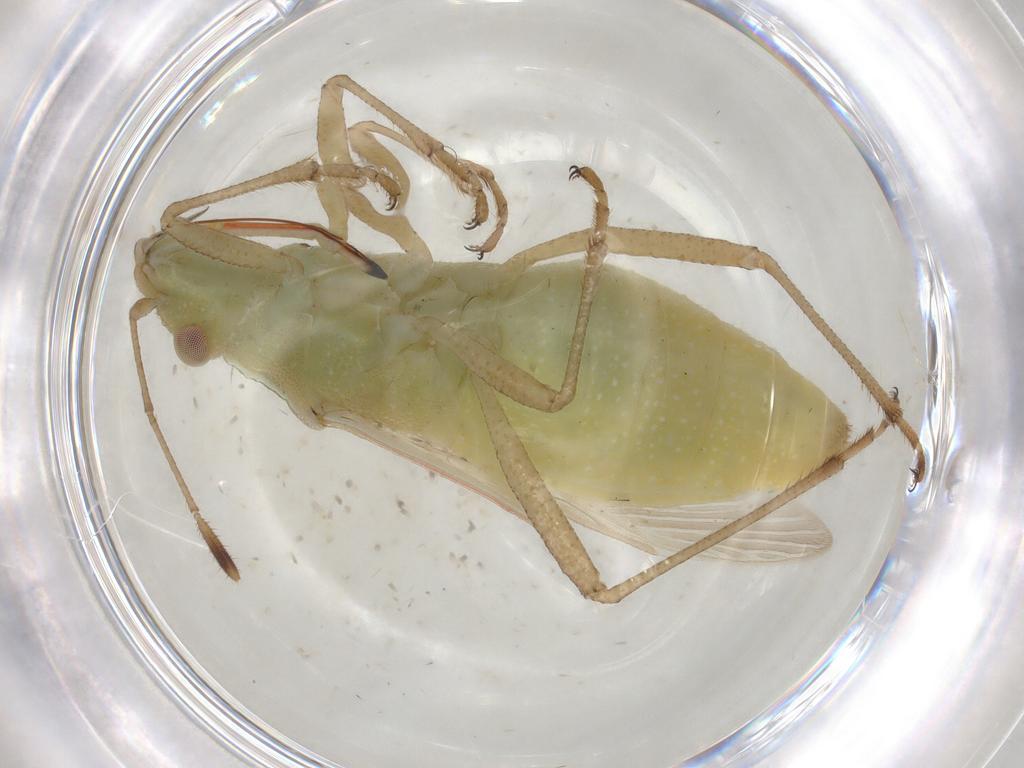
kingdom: Animalia
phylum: Arthropoda
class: Insecta
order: Hemiptera
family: Rhopalidae
